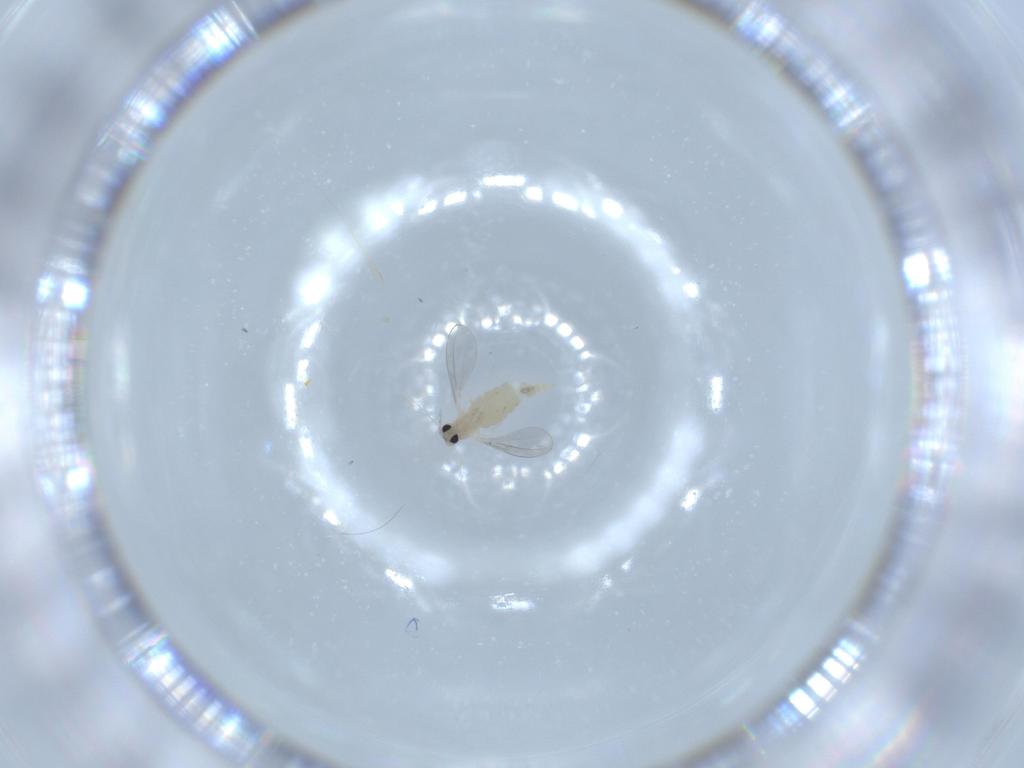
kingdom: Animalia
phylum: Arthropoda
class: Insecta
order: Diptera
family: Cecidomyiidae
